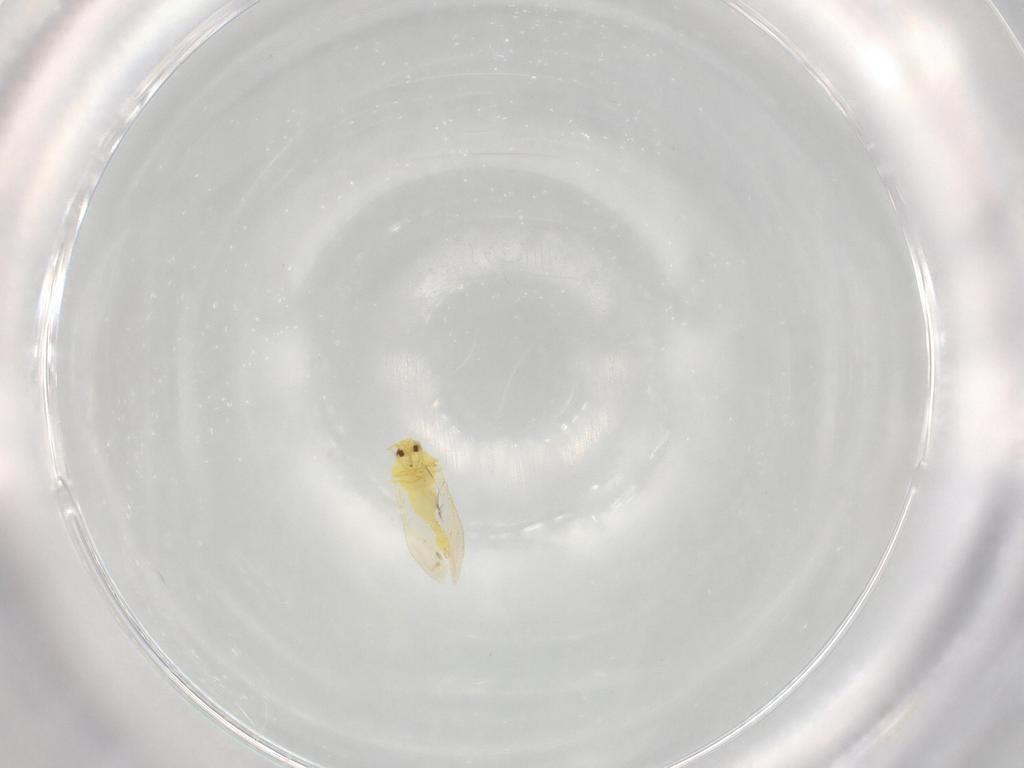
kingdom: Animalia
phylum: Arthropoda
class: Insecta
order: Hemiptera
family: Aleyrodidae
